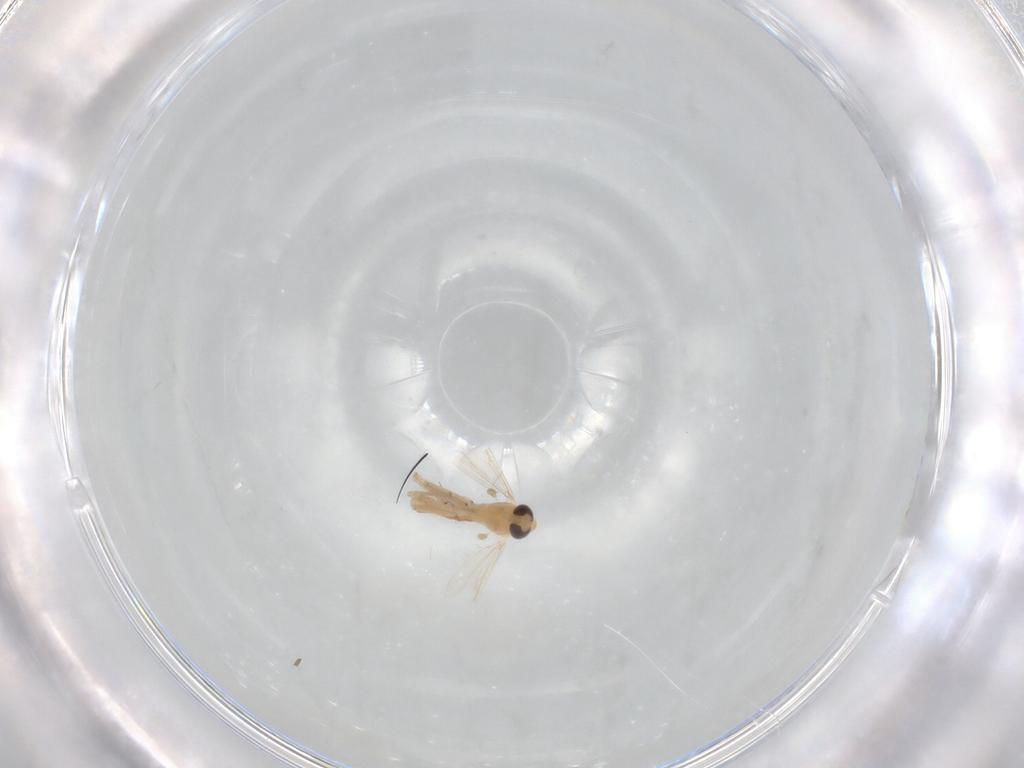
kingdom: Animalia
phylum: Arthropoda
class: Insecta
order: Diptera
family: Chironomidae
